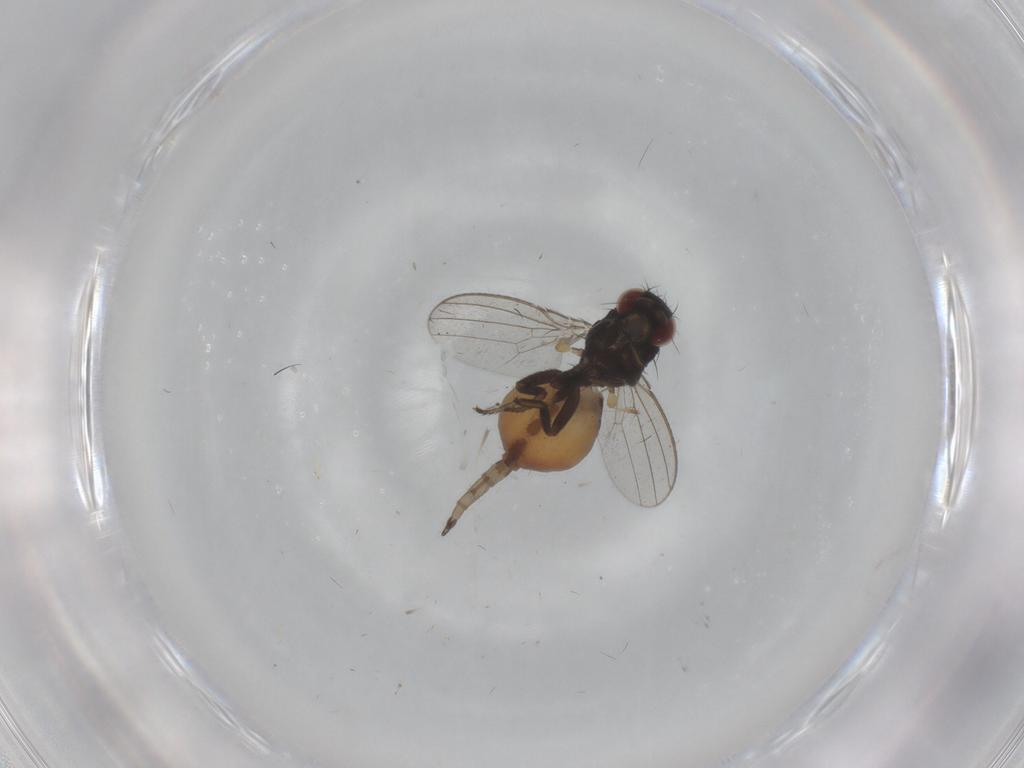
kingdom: Animalia
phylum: Arthropoda
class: Insecta
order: Diptera
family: Milichiidae
